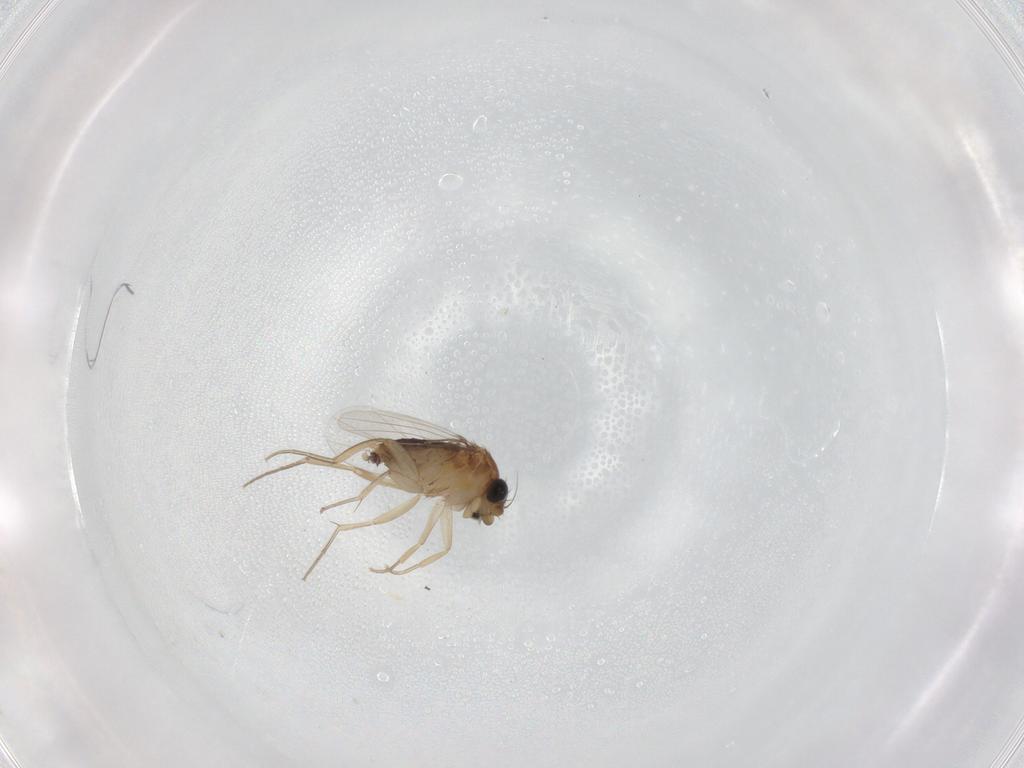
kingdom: Animalia
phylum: Arthropoda
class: Insecta
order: Diptera
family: Phoridae
